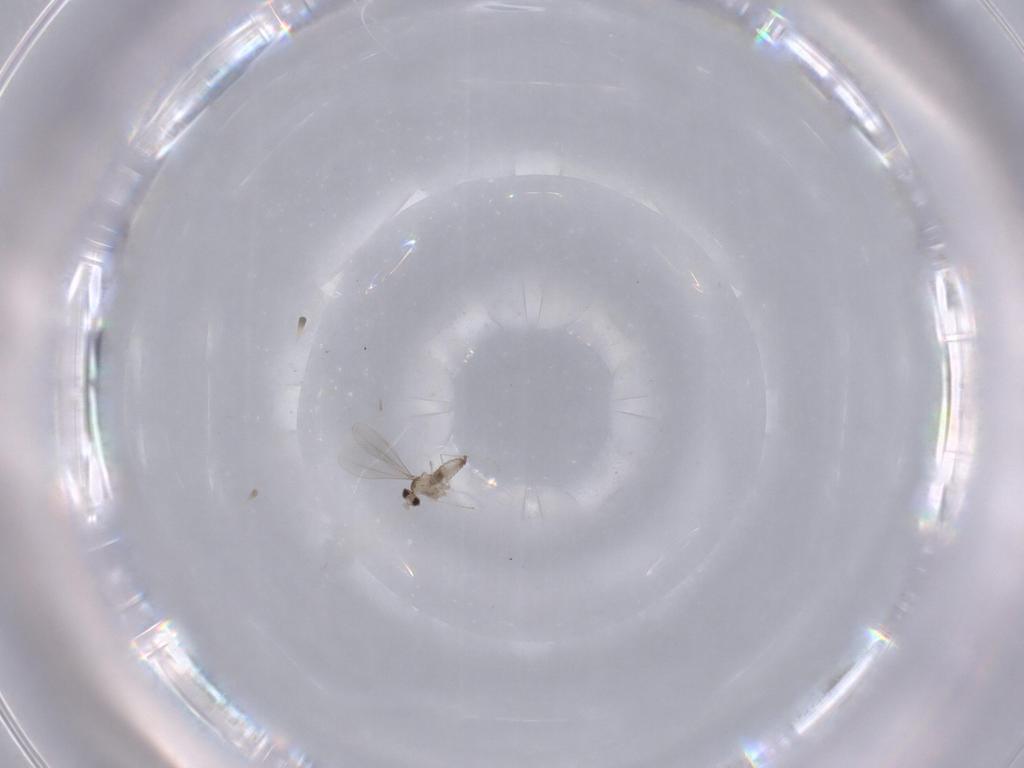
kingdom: Animalia
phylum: Arthropoda
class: Insecta
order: Diptera
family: Cecidomyiidae
